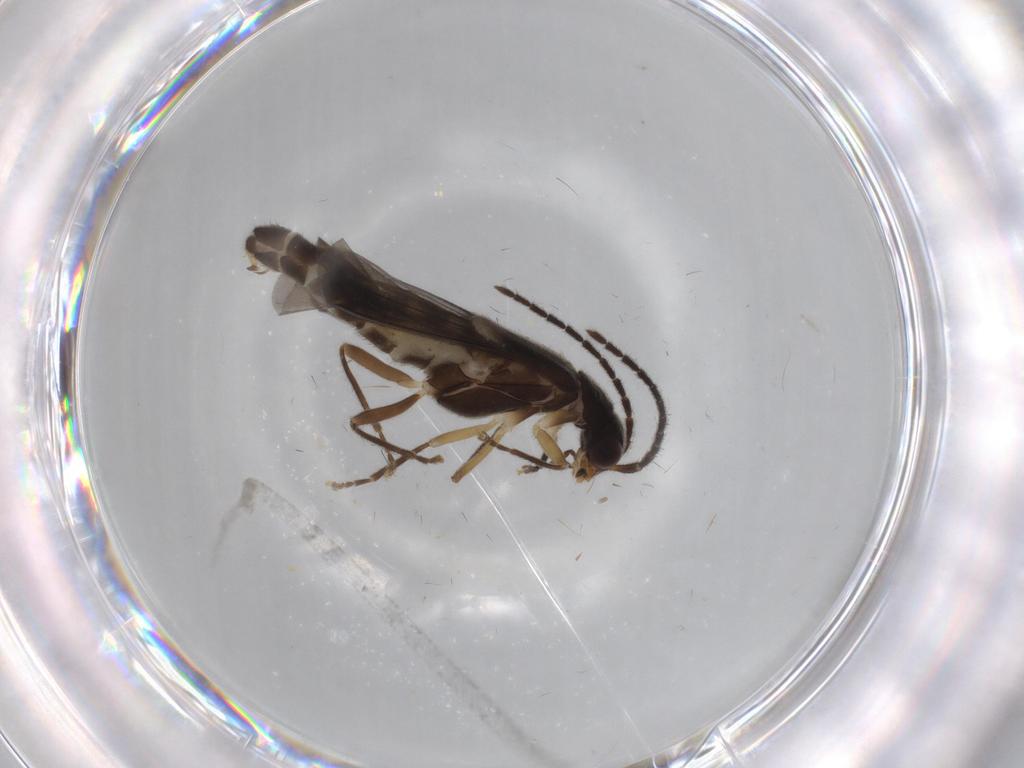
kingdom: Animalia
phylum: Arthropoda
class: Insecta
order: Coleoptera
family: Cantharidae
